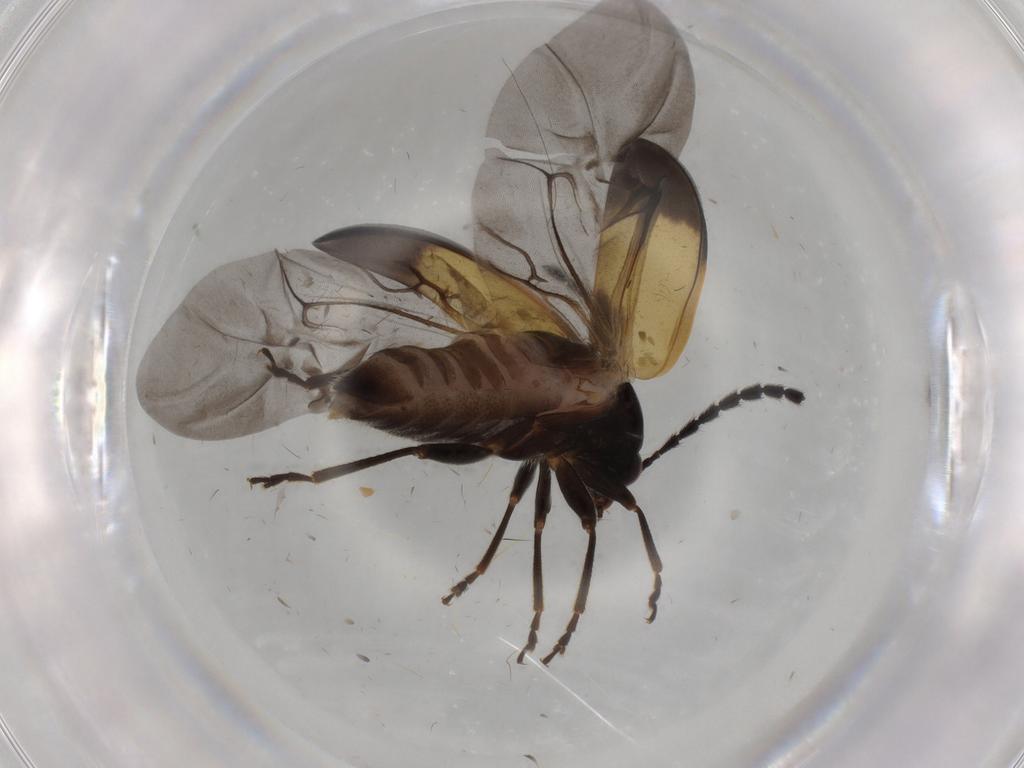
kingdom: Animalia
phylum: Arthropoda
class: Insecta
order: Coleoptera
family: Chrysomelidae
